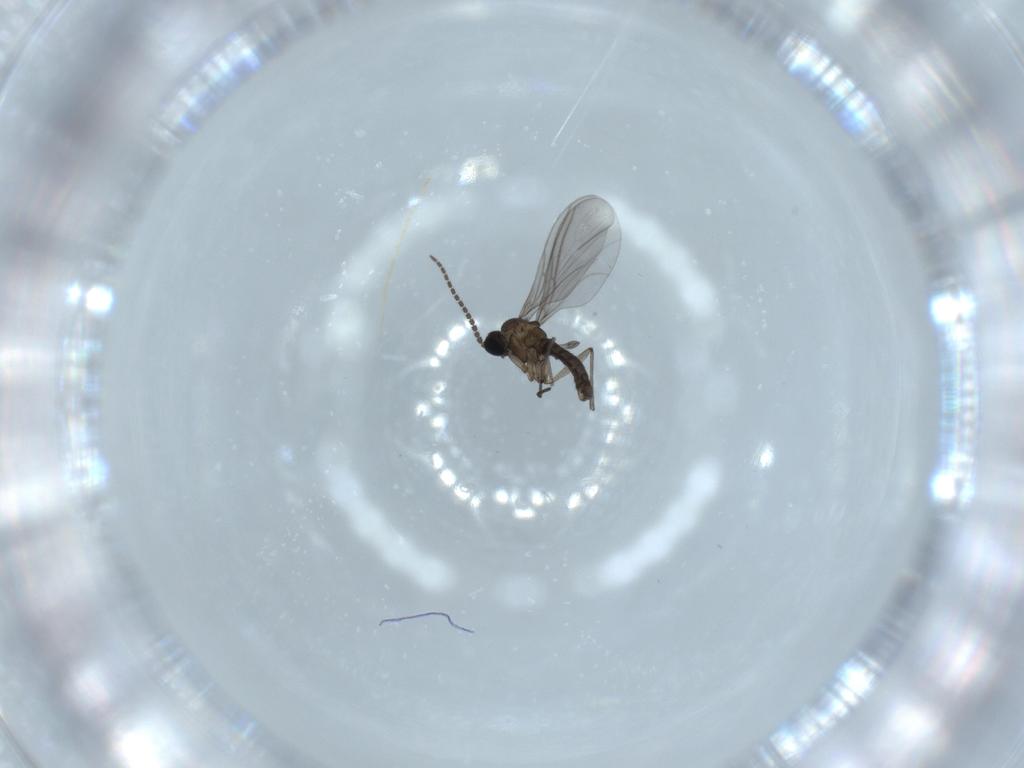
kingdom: Animalia
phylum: Arthropoda
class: Insecta
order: Diptera
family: Sciaridae
